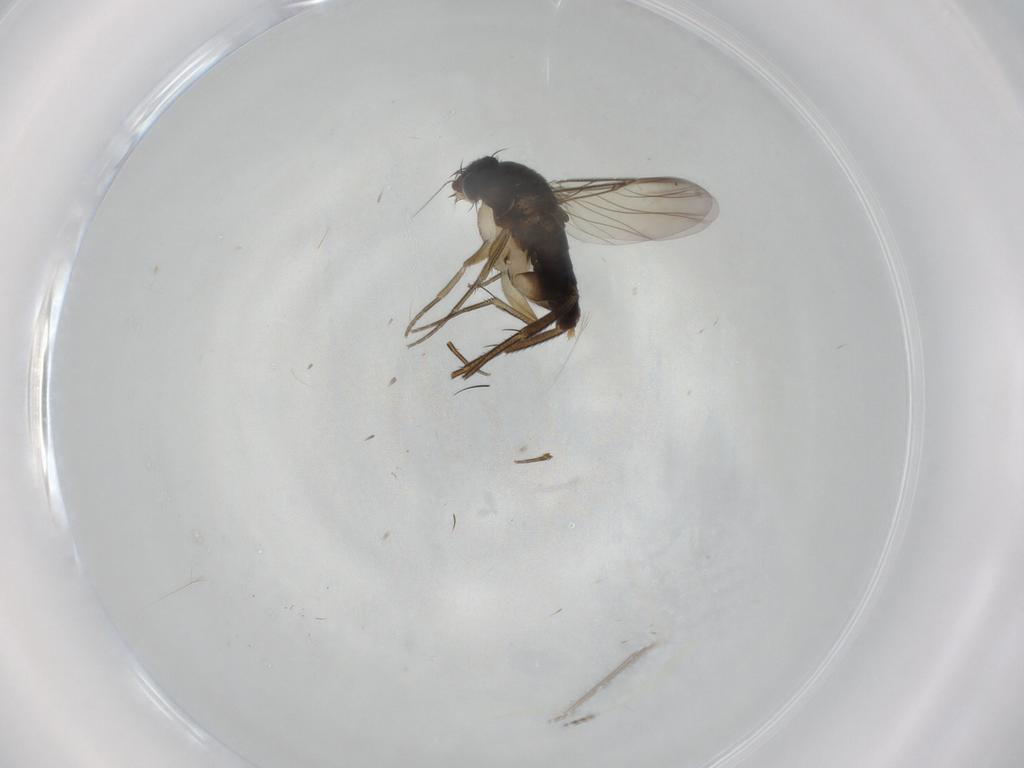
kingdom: Animalia
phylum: Arthropoda
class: Insecta
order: Diptera
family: Phoridae
